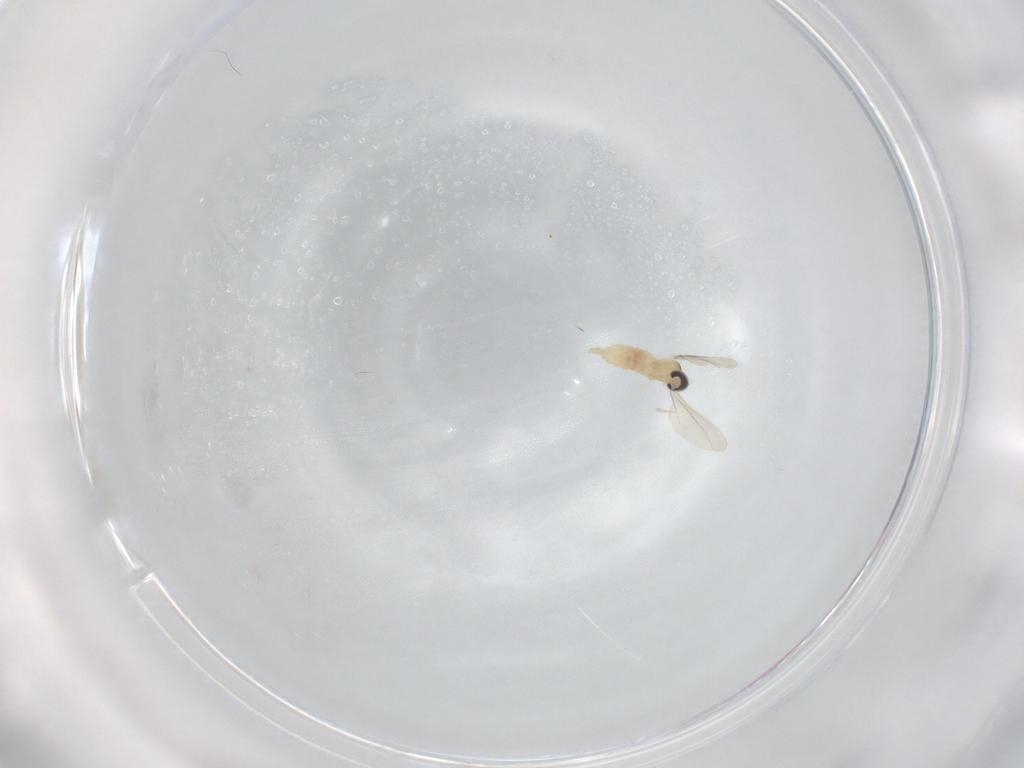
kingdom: Animalia
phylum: Arthropoda
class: Insecta
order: Diptera
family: Cecidomyiidae
